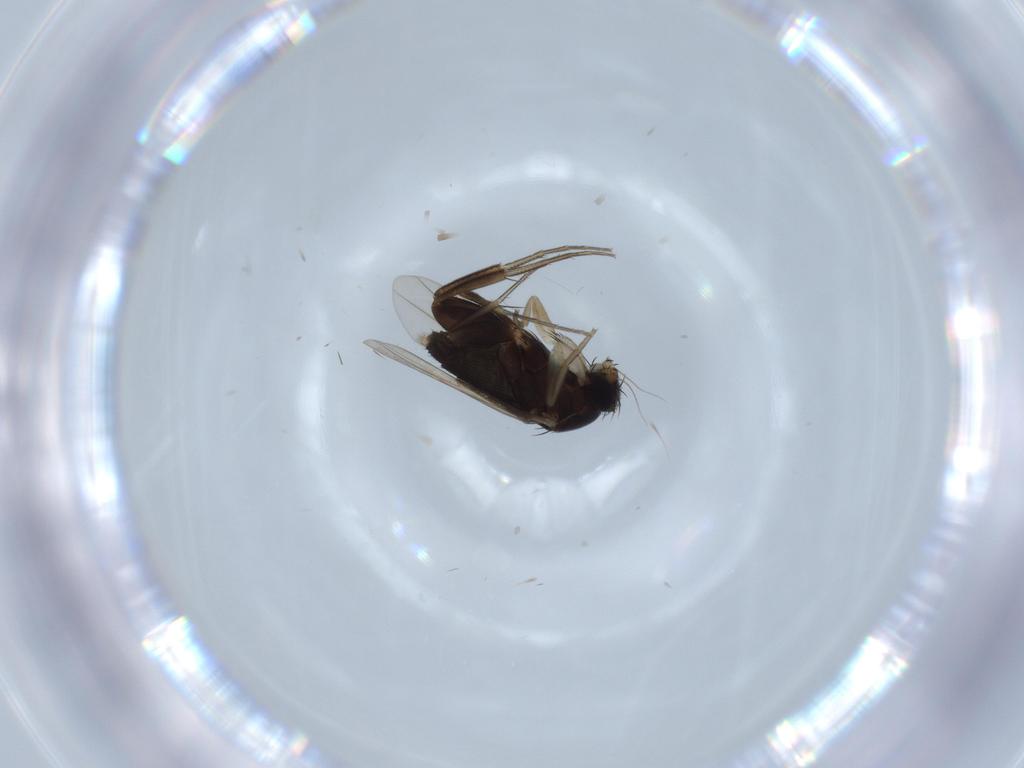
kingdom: Animalia
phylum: Arthropoda
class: Insecta
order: Diptera
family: Phoridae
